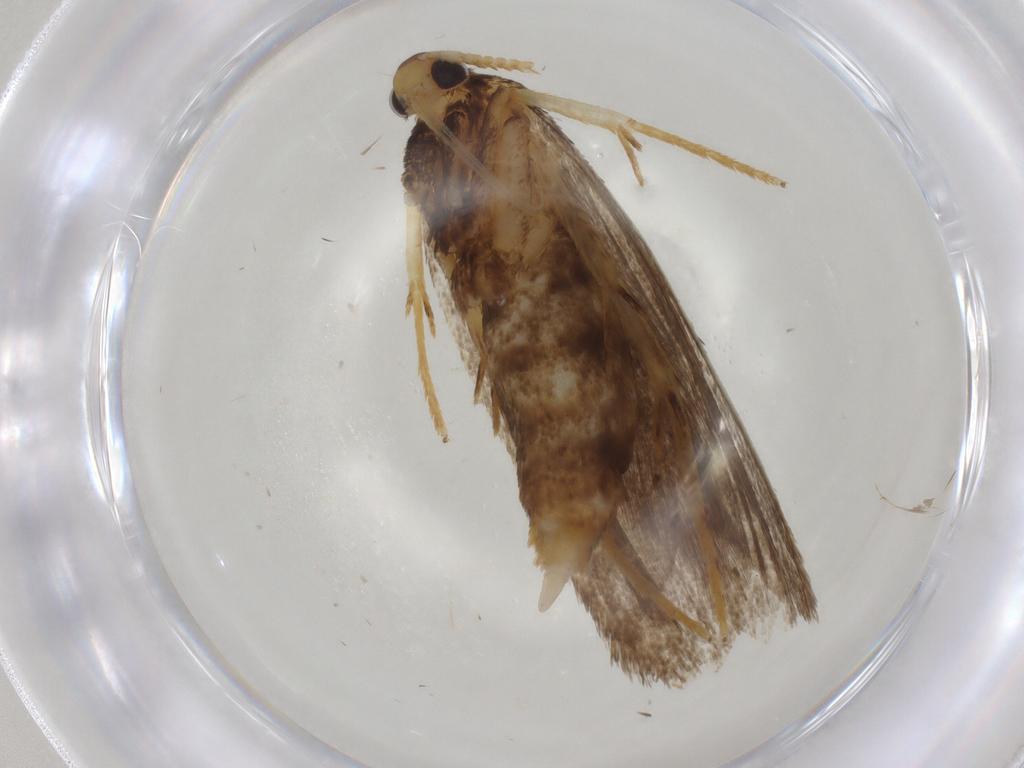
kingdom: Animalia
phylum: Arthropoda
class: Insecta
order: Lepidoptera
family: Lecithoceridae
